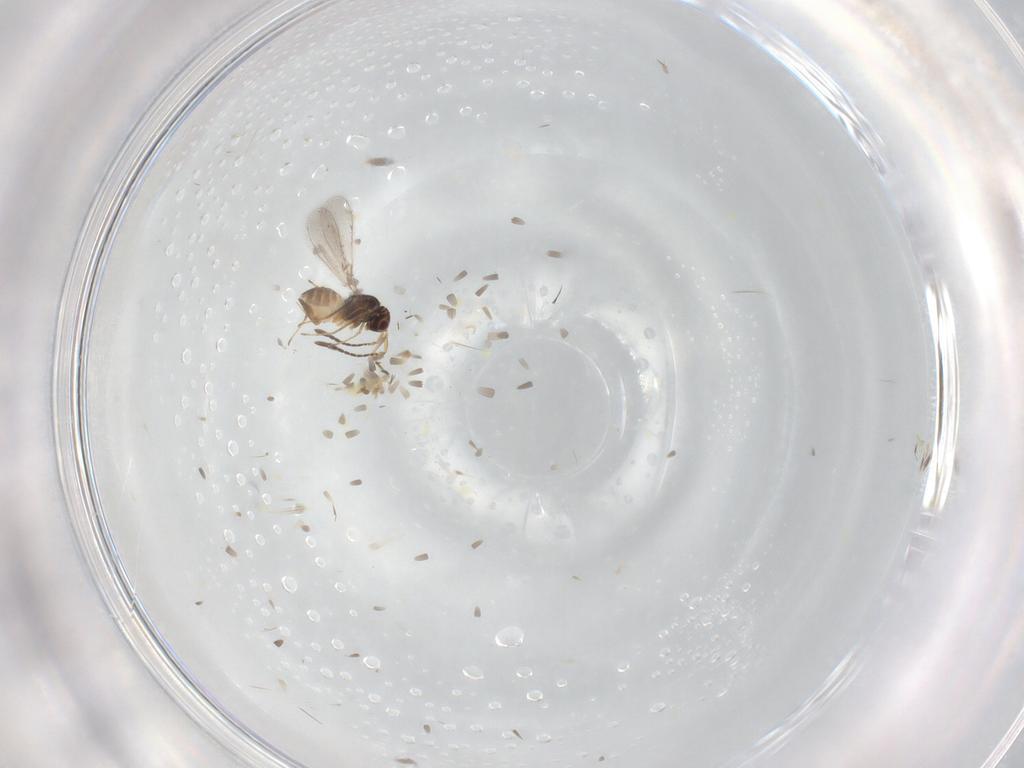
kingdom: Animalia
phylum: Arthropoda
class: Insecta
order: Hymenoptera
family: Mymaridae
